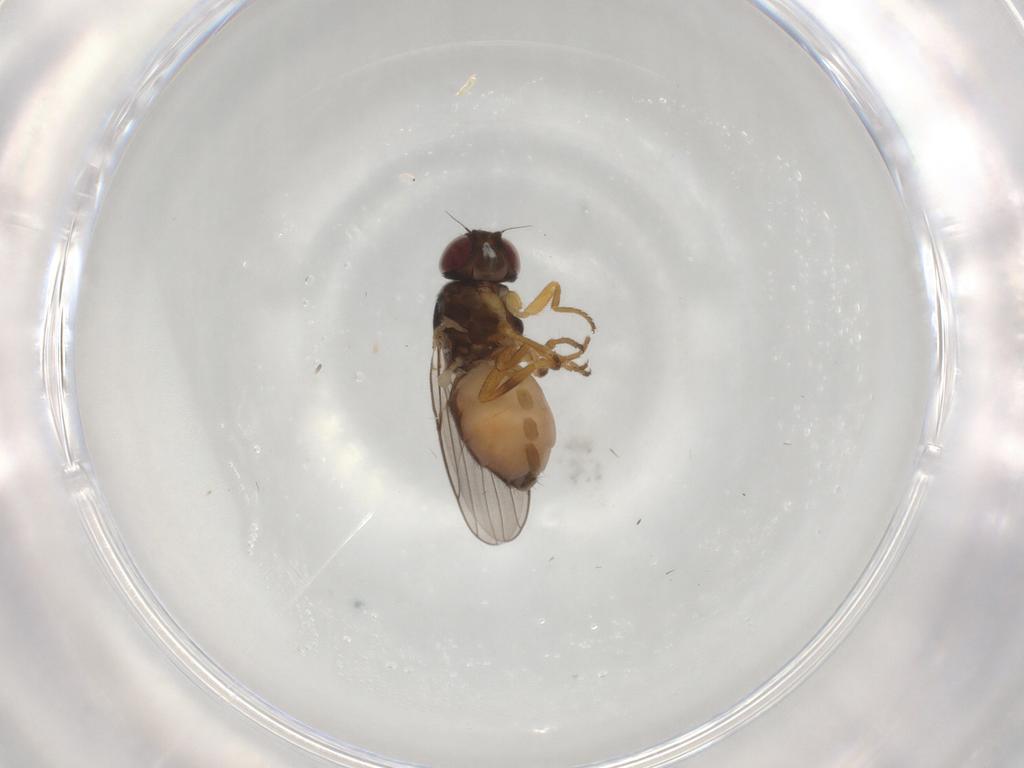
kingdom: Animalia
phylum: Arthropoda
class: Insecta
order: Diptera
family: Chloropidae
